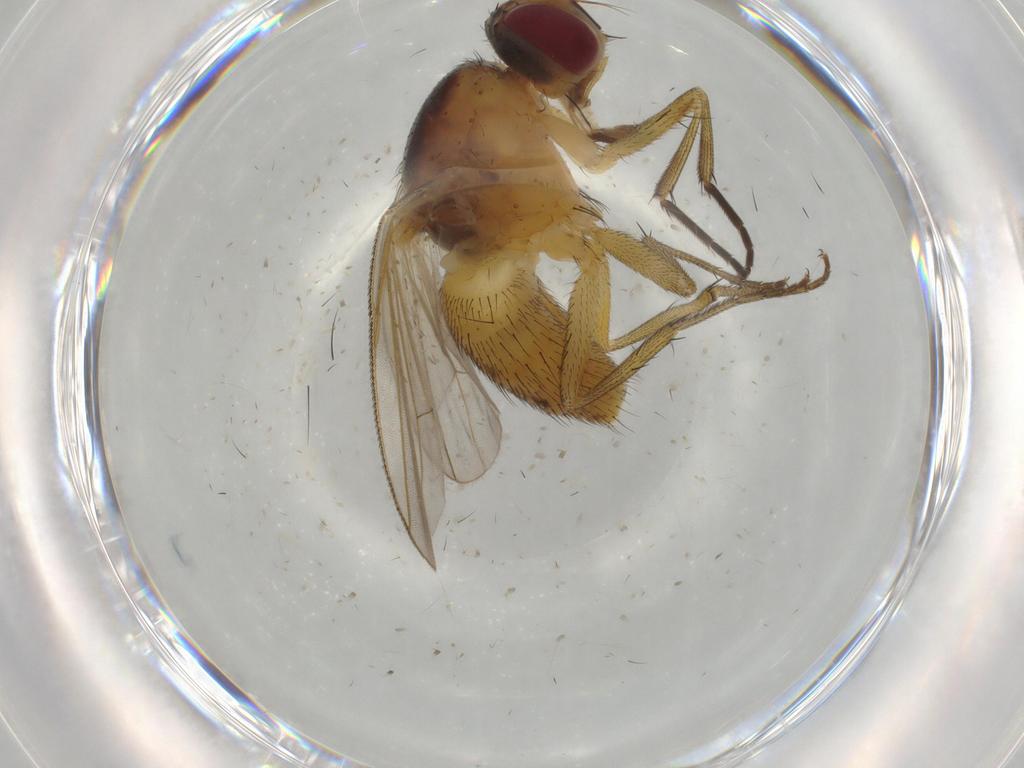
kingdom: Animalia
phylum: Arthropoda
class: Insecta
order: Diptera
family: Muscidae
